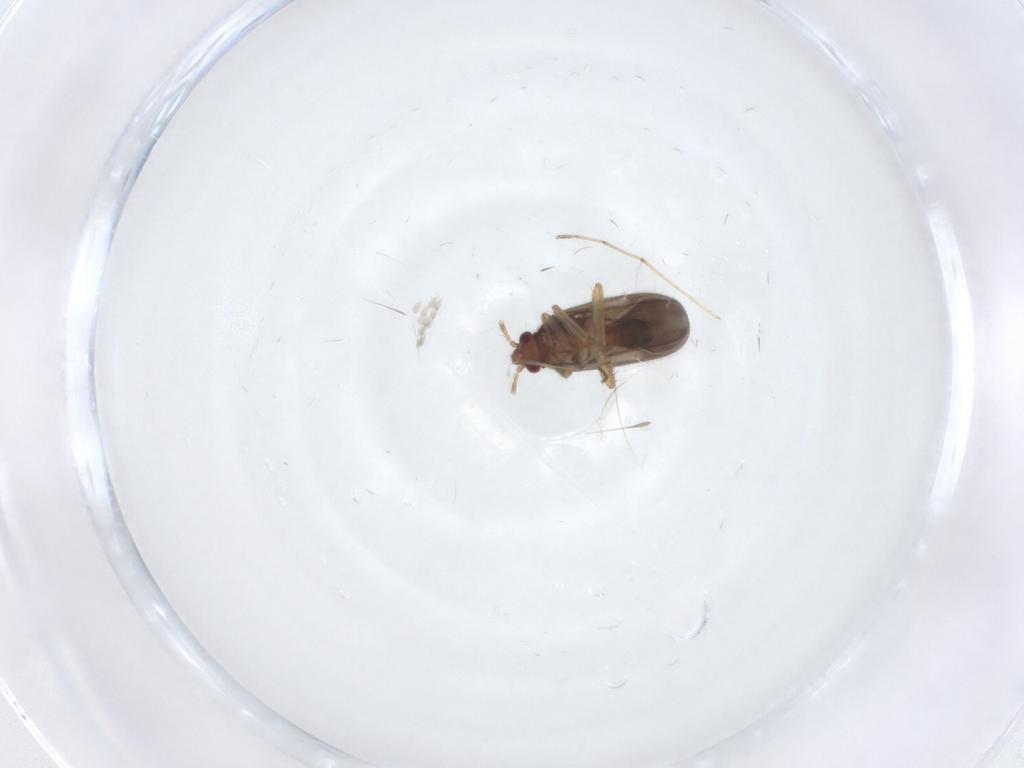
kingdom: Animalia
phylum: Arthropoda
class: Insecta
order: Hemiptera
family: Ceratocombidae
